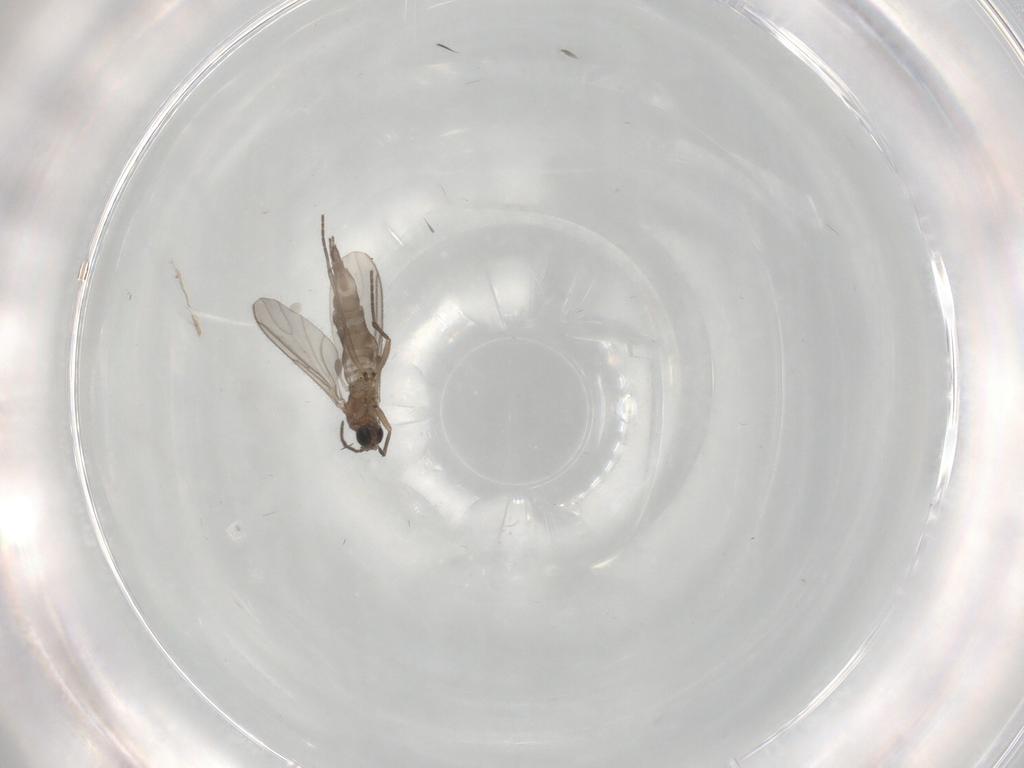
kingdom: Animalia
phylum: Arthropoda
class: Insecta
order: Diptera
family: Sciaridae
